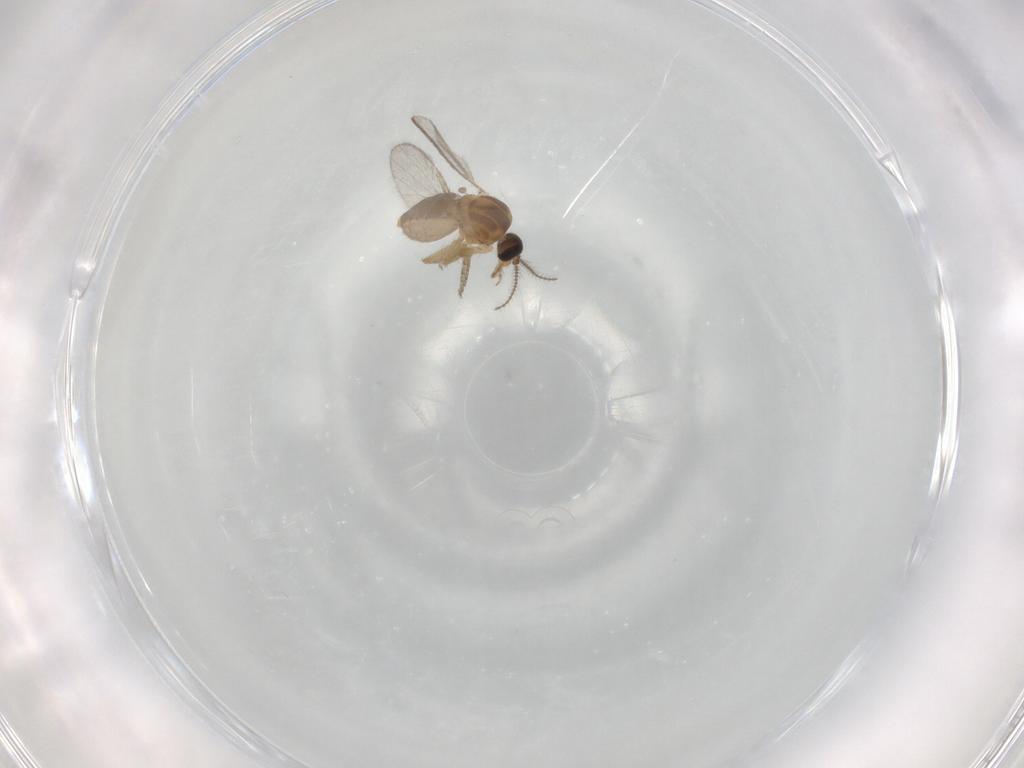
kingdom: Animalia
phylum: Arthropoda
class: Insecta
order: Diptera
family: Ceratopogonidae
